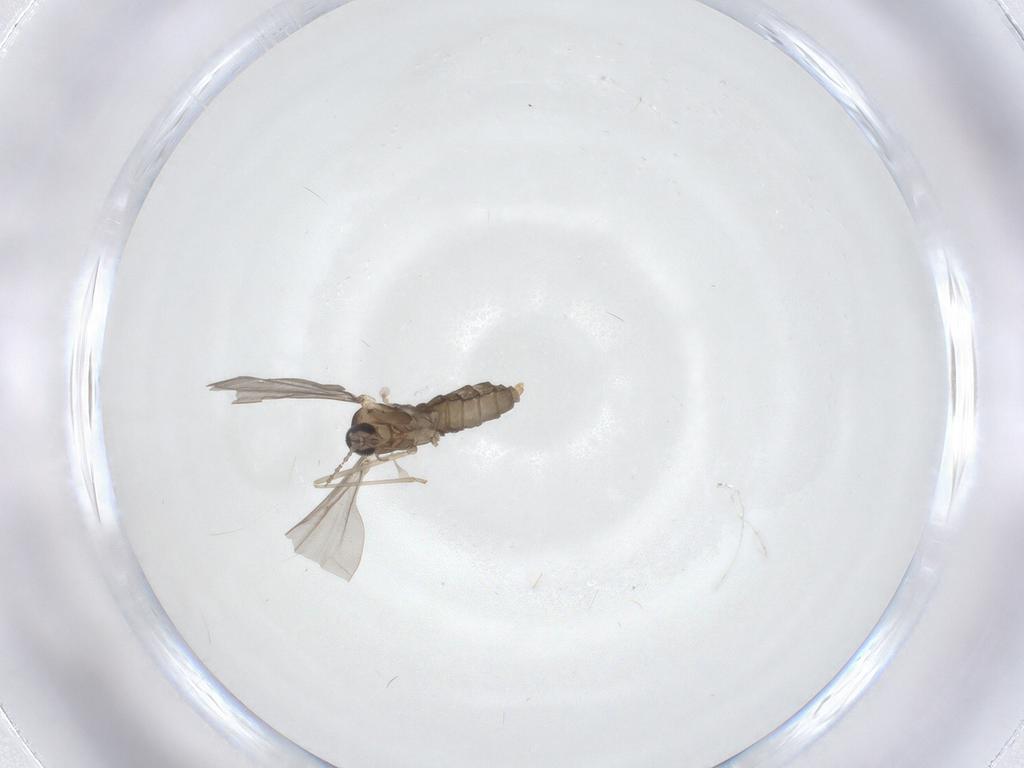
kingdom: Animalia
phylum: Arthropoda
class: Insecta
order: Diptera
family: Cecidomyiidae
